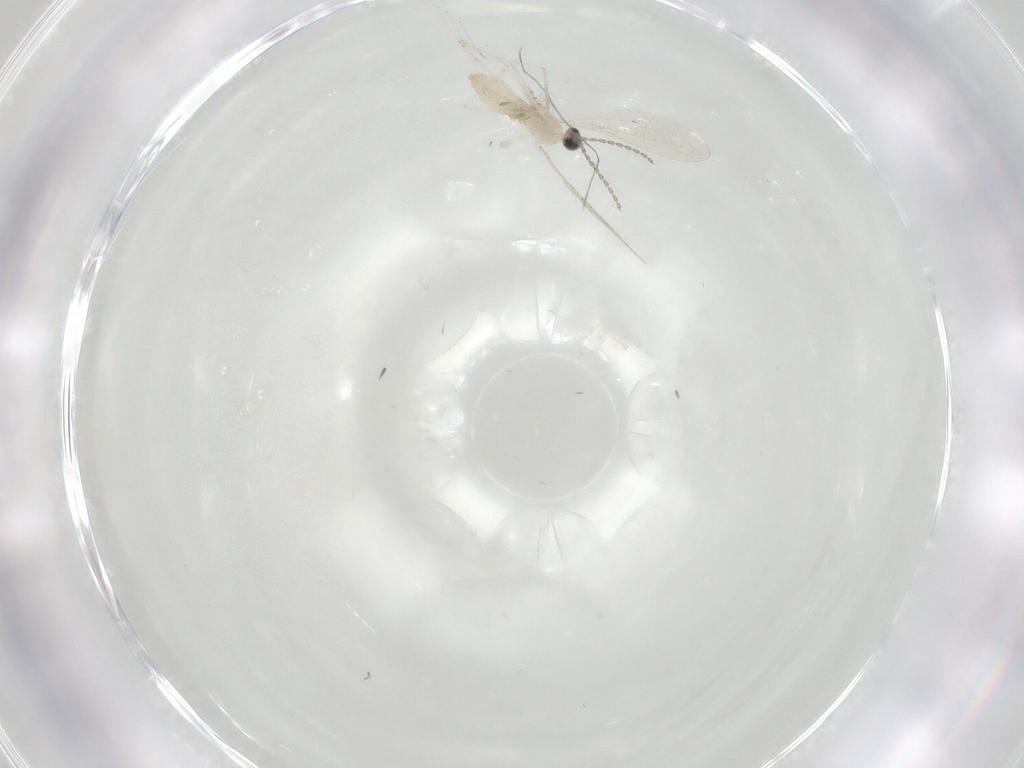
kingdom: Animalia
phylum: Arthropoda
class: Insecta
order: Diptera
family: Cecidomyiidae
